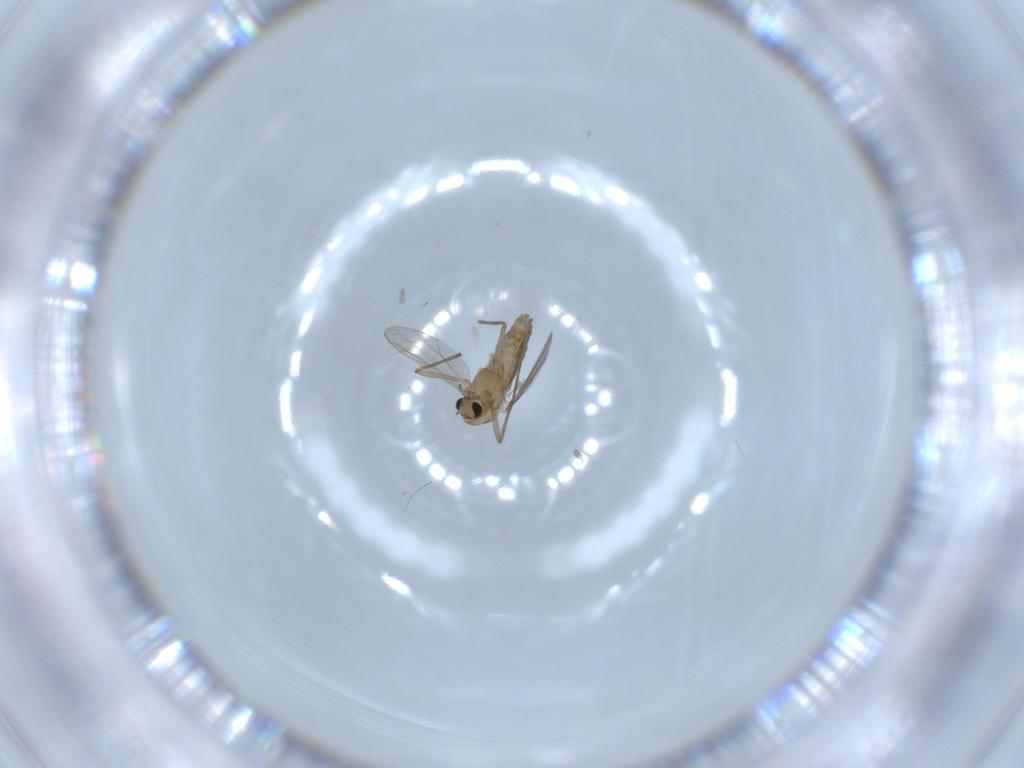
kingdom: Animalia
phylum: Arthropoda
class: Insecta
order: Diptera
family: Chironomidae
